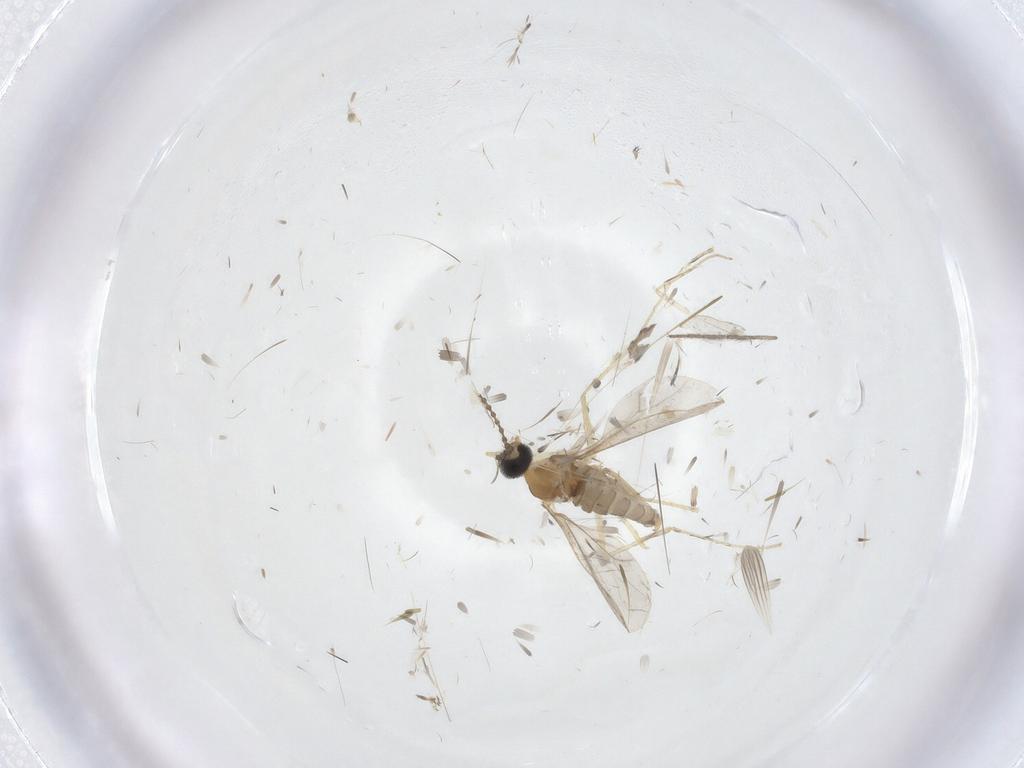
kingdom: Animalia
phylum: Arthropoda
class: Insecta
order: Diptera
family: Cecidomyiidae
